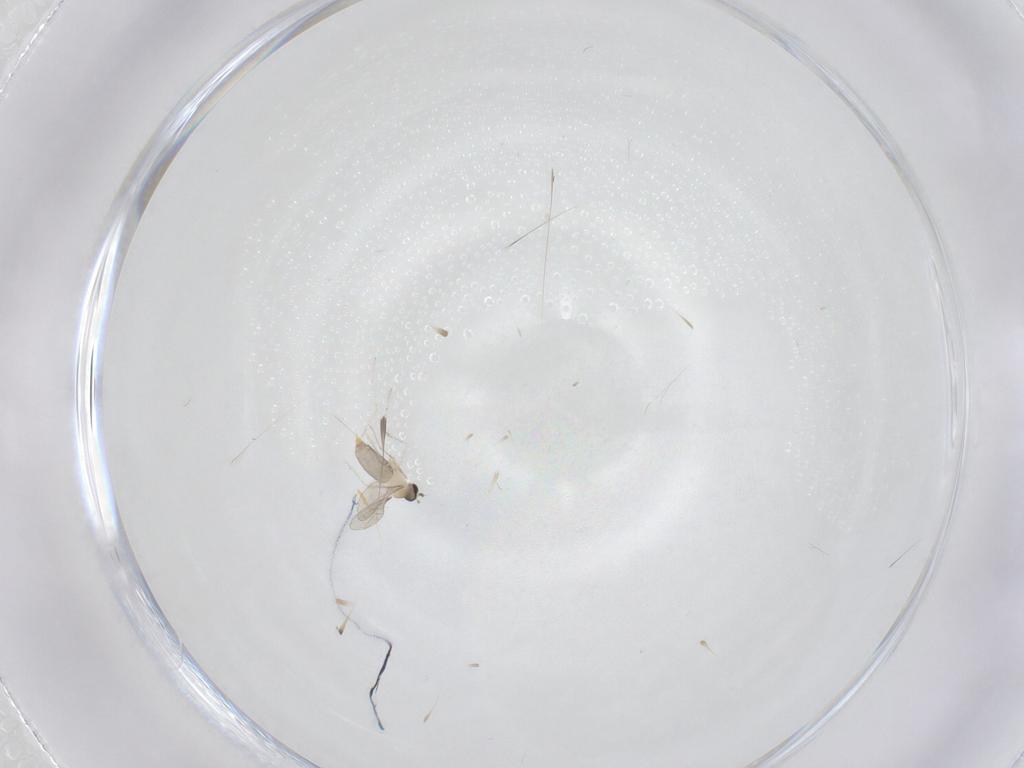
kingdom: Animalia
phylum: Arthropoda
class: Insecta
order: Diptera
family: Cecidomyiidae
